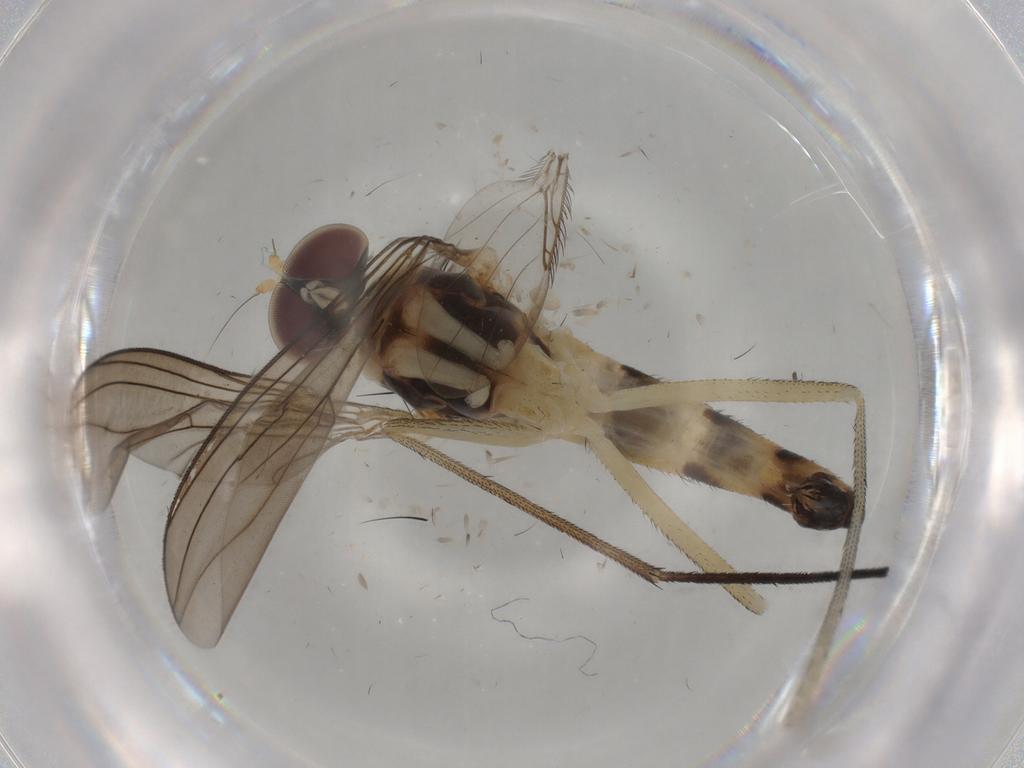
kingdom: Animalia
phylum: Arthropoda
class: Insecta
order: Diptera
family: Phoridae
